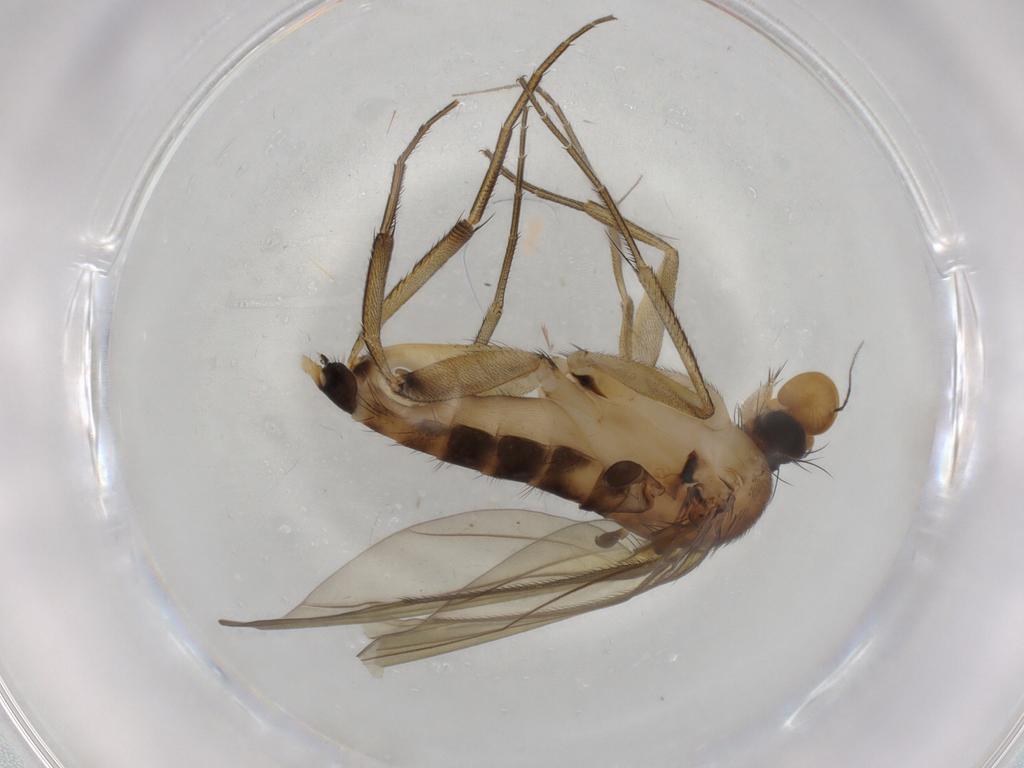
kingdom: Animalia
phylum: Arthropoda
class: Insecta
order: Diptera
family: Phoridae
